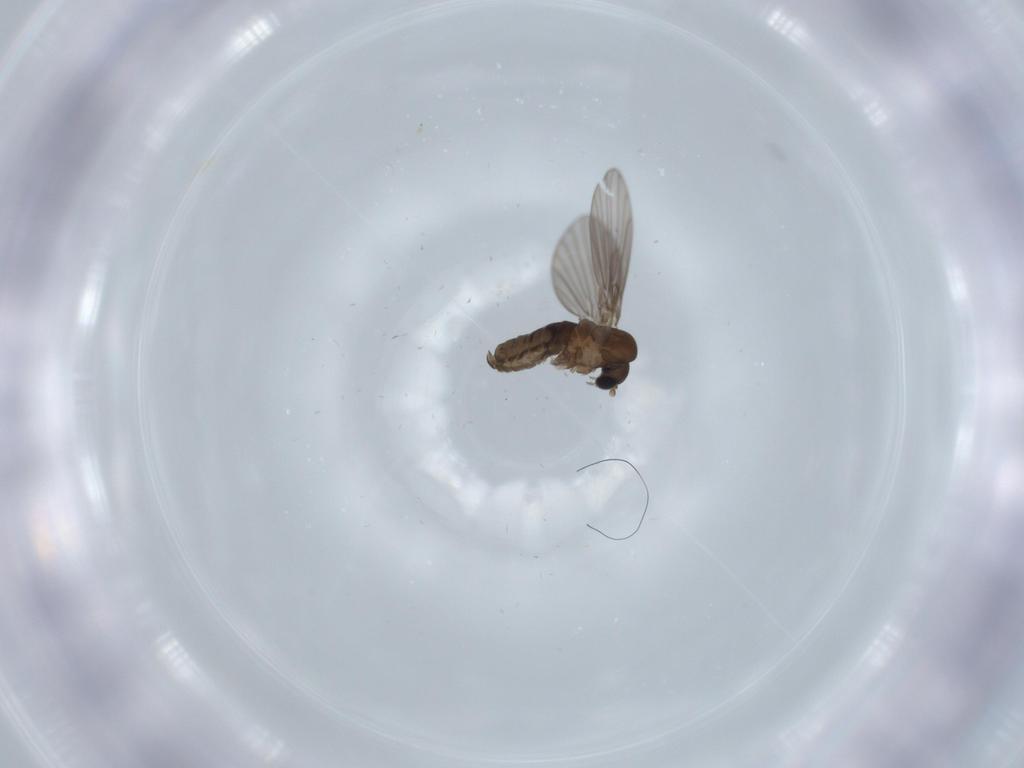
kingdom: Animalia
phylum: Arthropoda
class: Insecta
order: Diptera
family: Psychodidae
